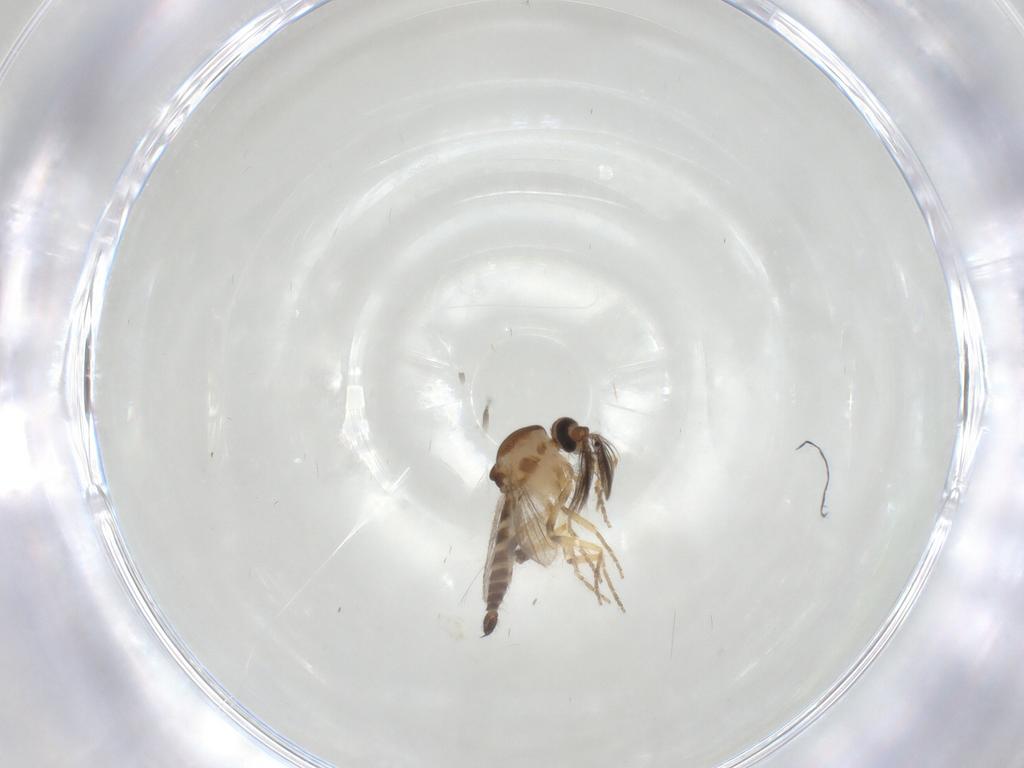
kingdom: Animalia
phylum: Arthropoda
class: Insecta
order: Diptera
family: Ceratopogonidae
